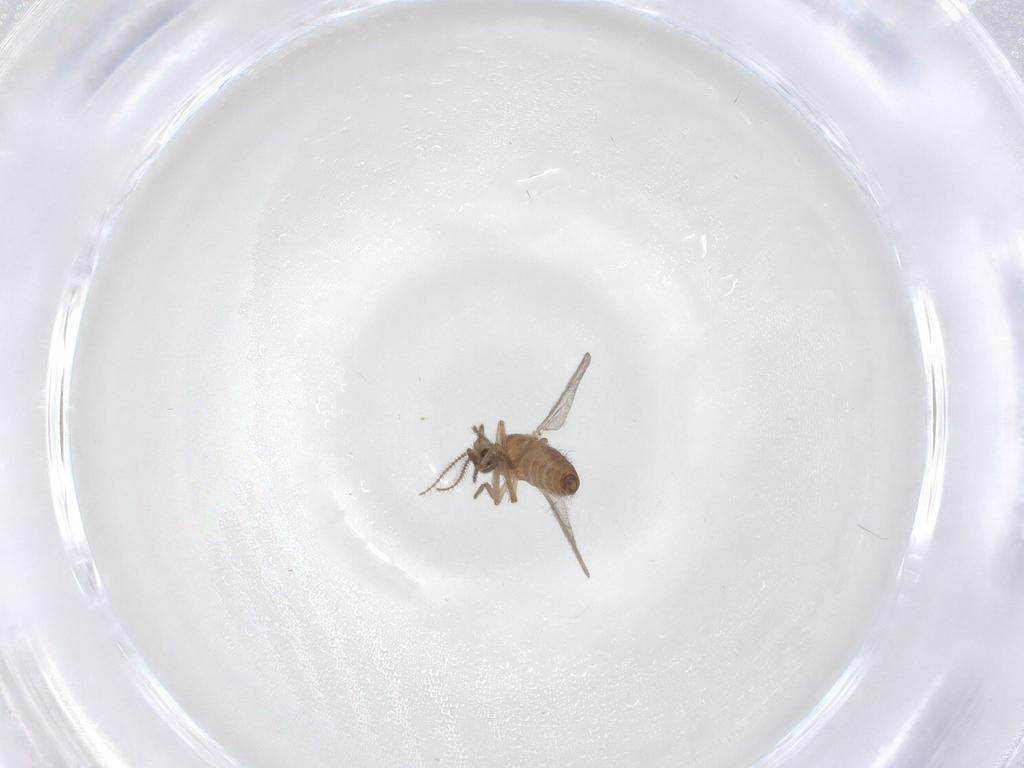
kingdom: Animalia
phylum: Arthropoda
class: Insecta
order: Diptera
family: Ceratopogonidae
